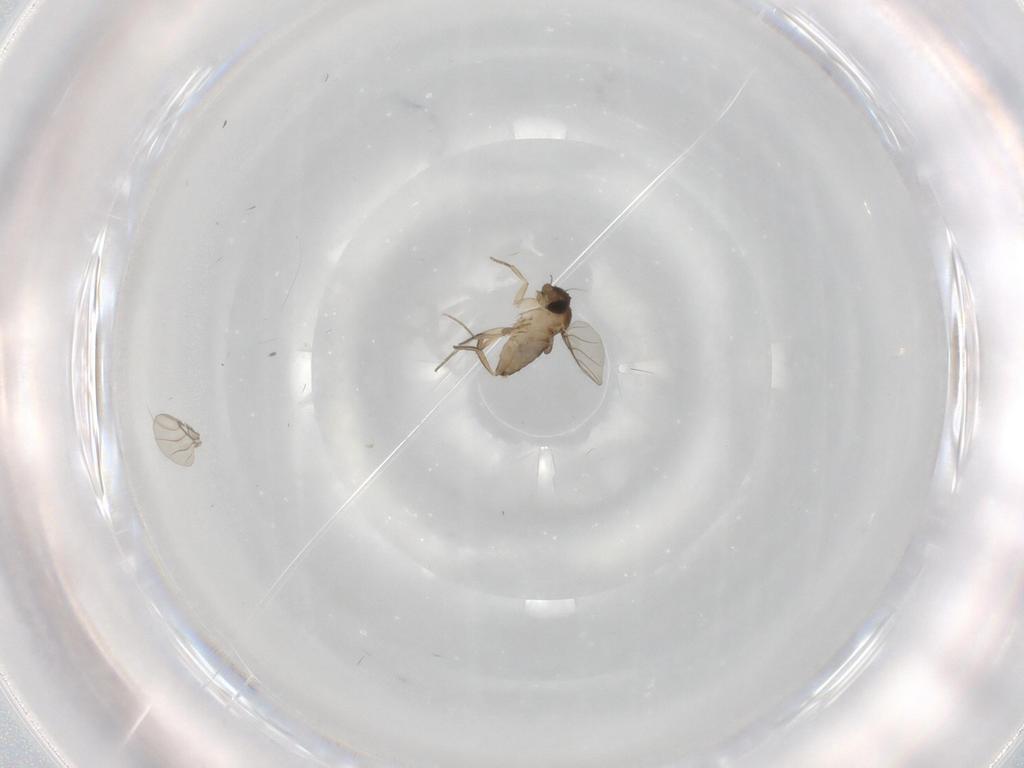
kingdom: Animalia
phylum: Arthropoda
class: Insecta
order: Diptera
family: Phoridae
